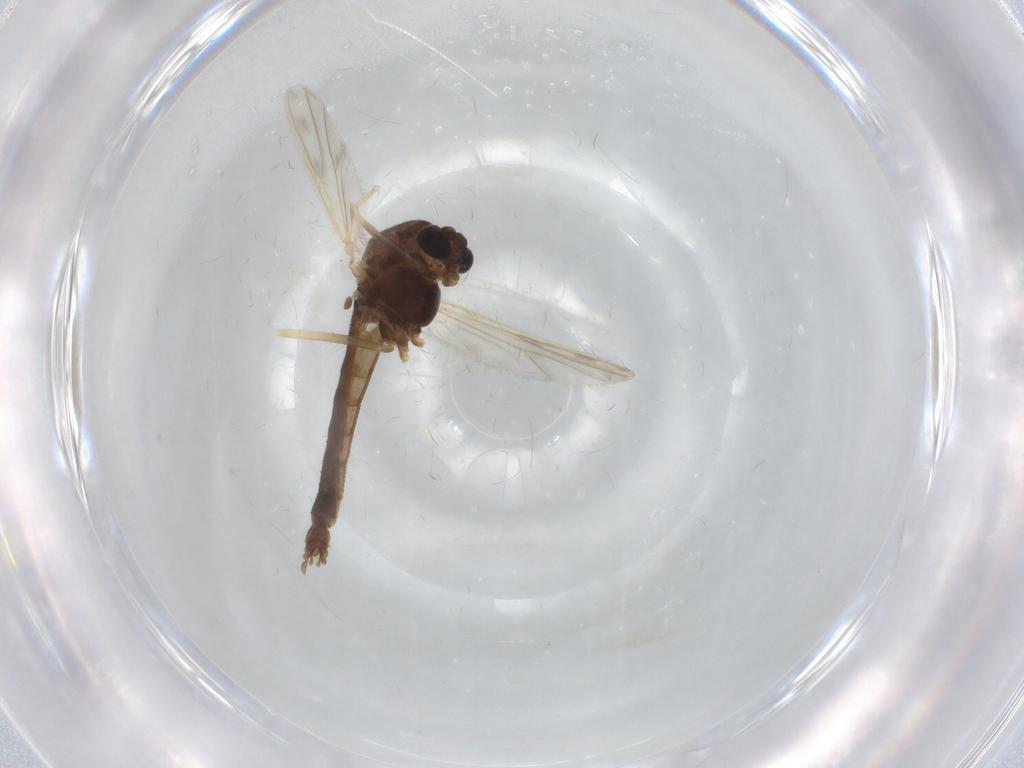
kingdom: Animalia
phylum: Arthropoda
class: Insecta
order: Diptera
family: Chironomidae
